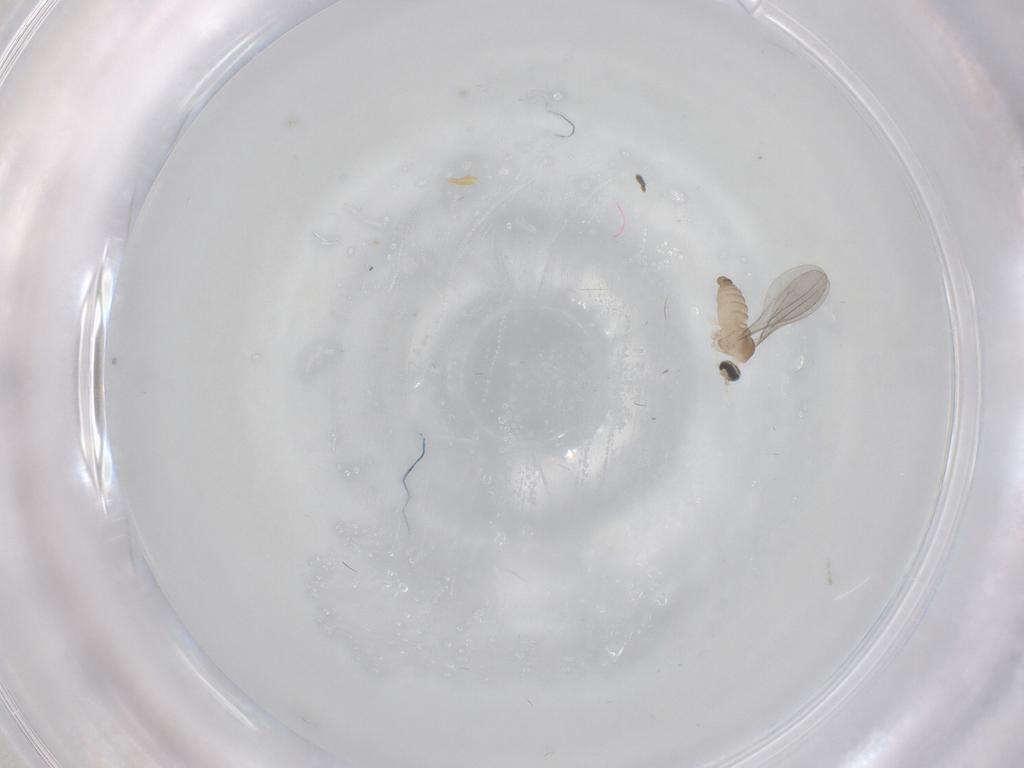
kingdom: Animalia
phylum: Arthropoda
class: Insecta
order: Diptera
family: Cecidomyiidae
